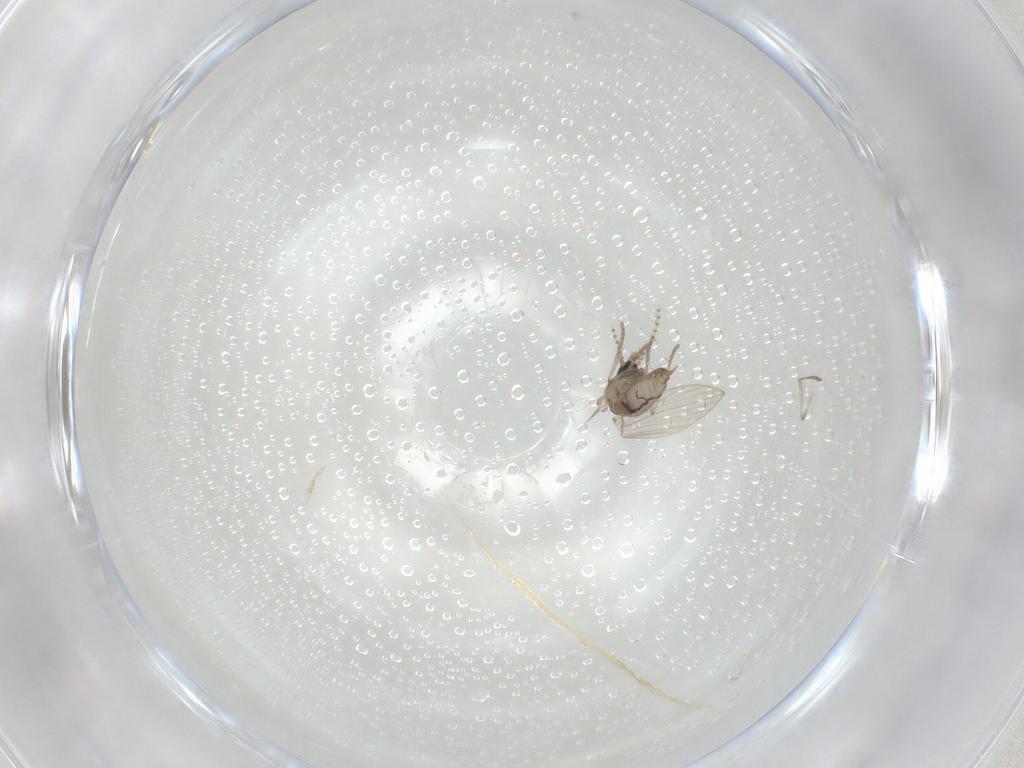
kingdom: Animalia
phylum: Arthropoda
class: Insecta
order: Diptera
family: Psychodidae
